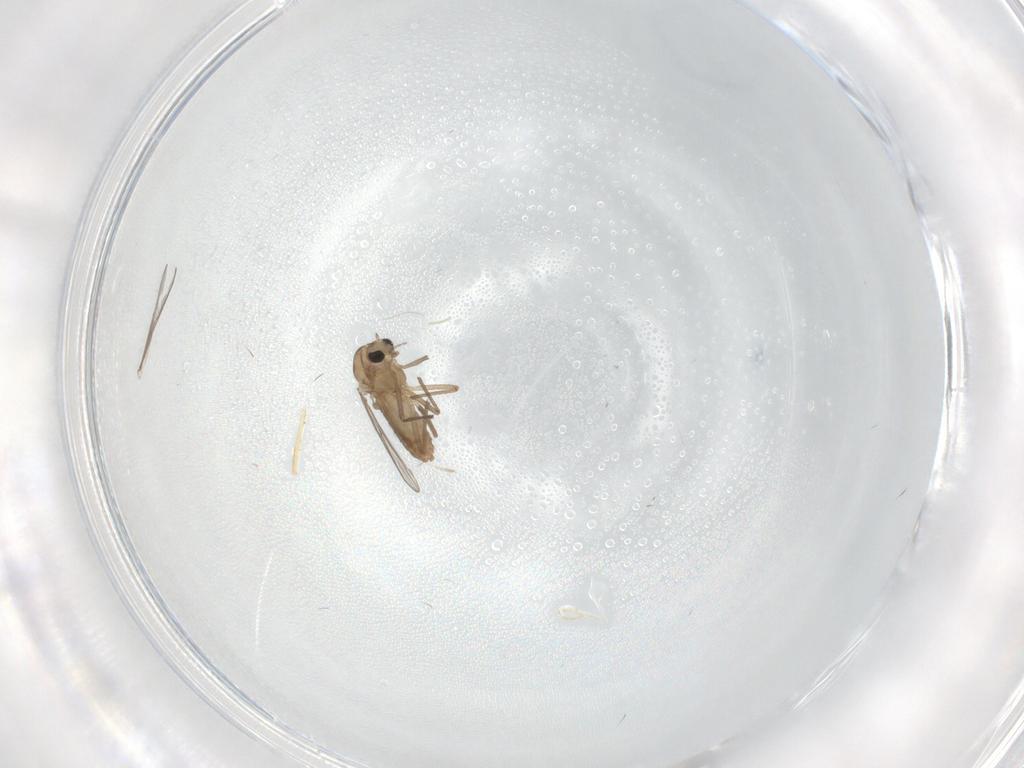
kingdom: Animalia
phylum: Arthropoda
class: Insecta
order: Diptera
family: Chironomidae
